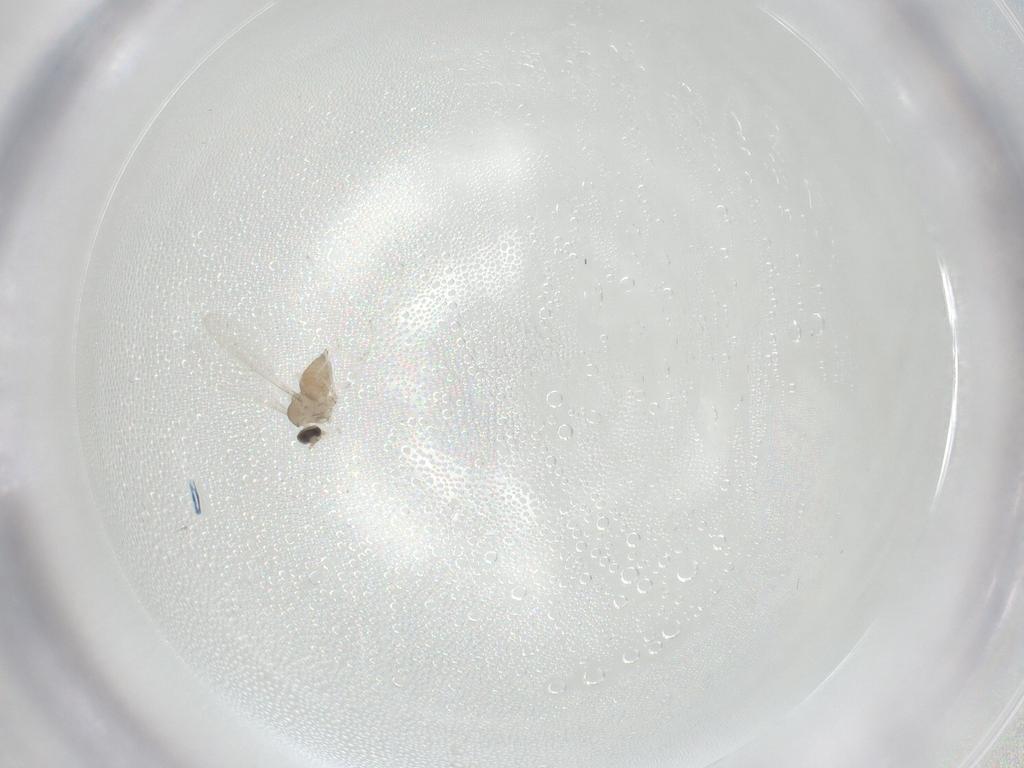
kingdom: Animalia
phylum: Arthropoda
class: Insecta
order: Diptera
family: Cecidomyiidae
